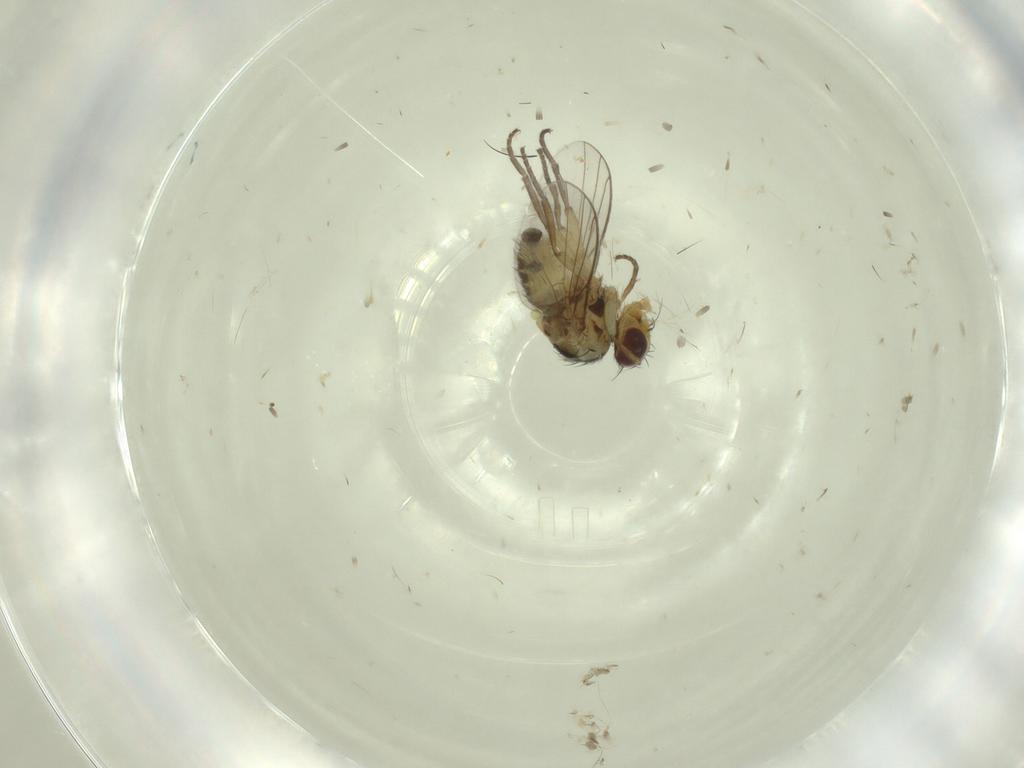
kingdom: Animalia
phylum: Arthropoda
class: Insecta
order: Diptera
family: Agromyzidae
